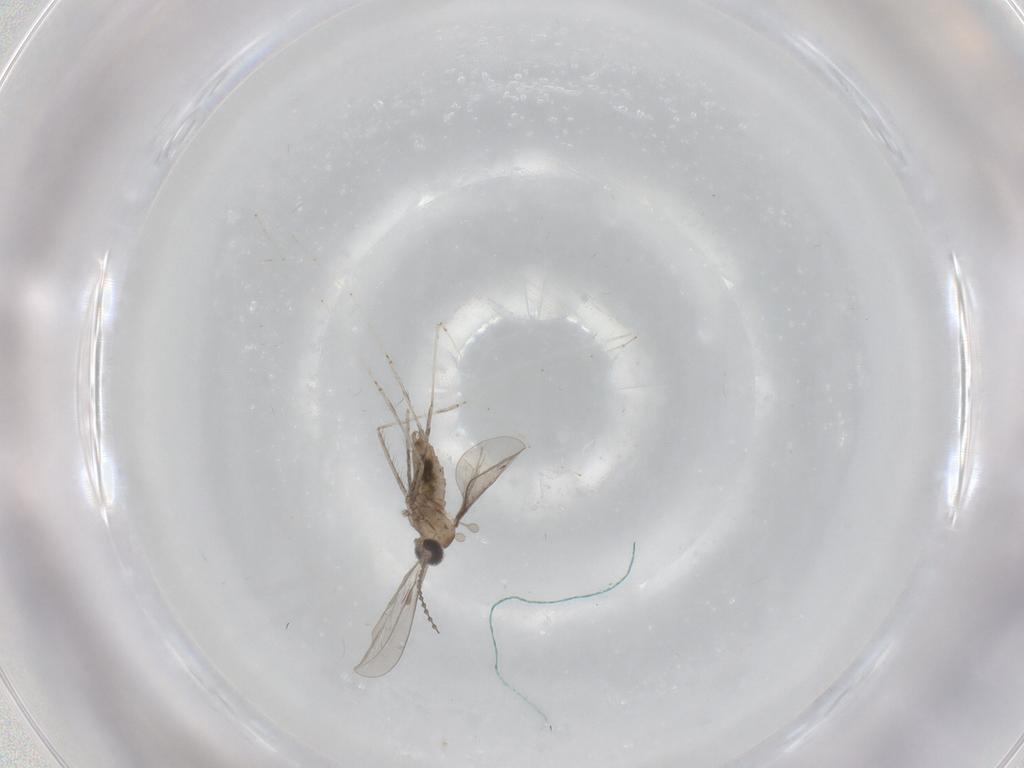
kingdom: Animalia
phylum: Arthropoda
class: Insecta
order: Diptera
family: Cecidomyiidae
